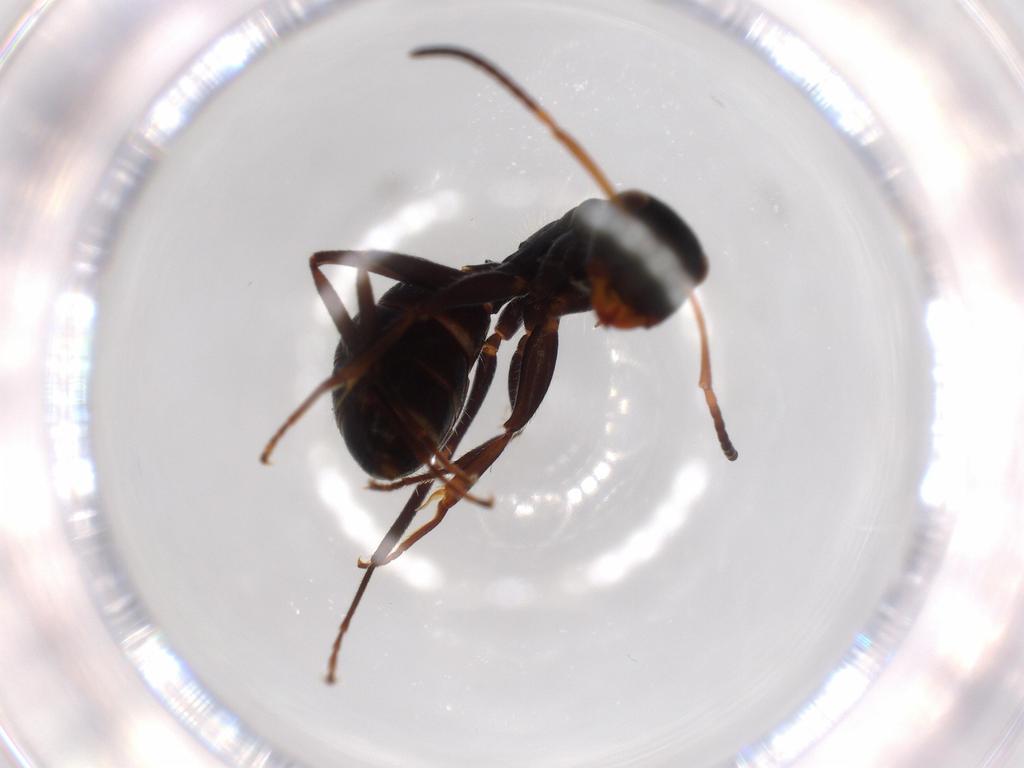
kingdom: Animalia
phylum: Arthropoda
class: Insecta
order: Hymenoptera
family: Formicidae
